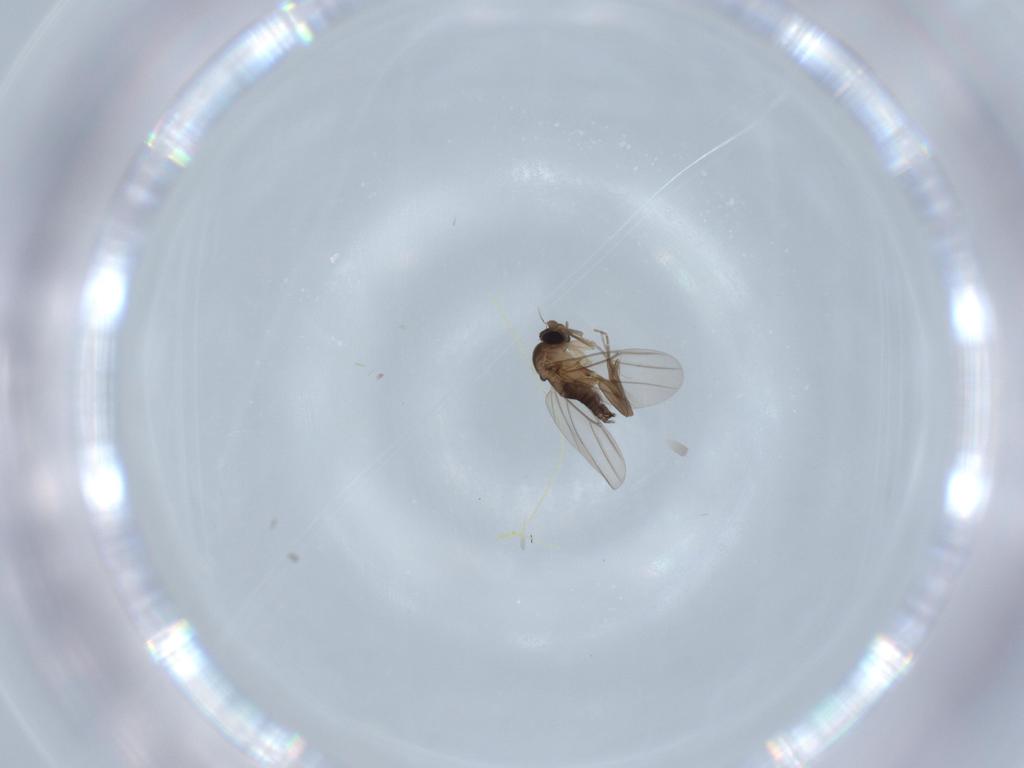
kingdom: Animalia
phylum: Arthropoda
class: Insecta
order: Diptera
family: Phoridae
